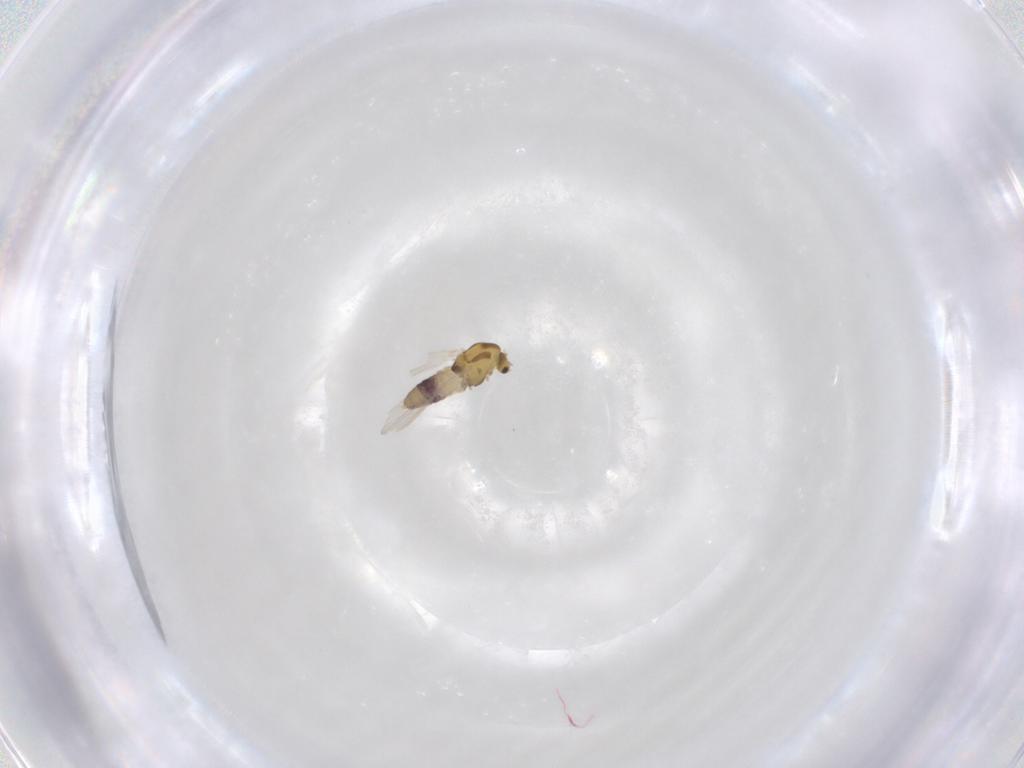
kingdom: Animalia
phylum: Arthropoda
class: Insecta
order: Diptera
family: Chironomidae
